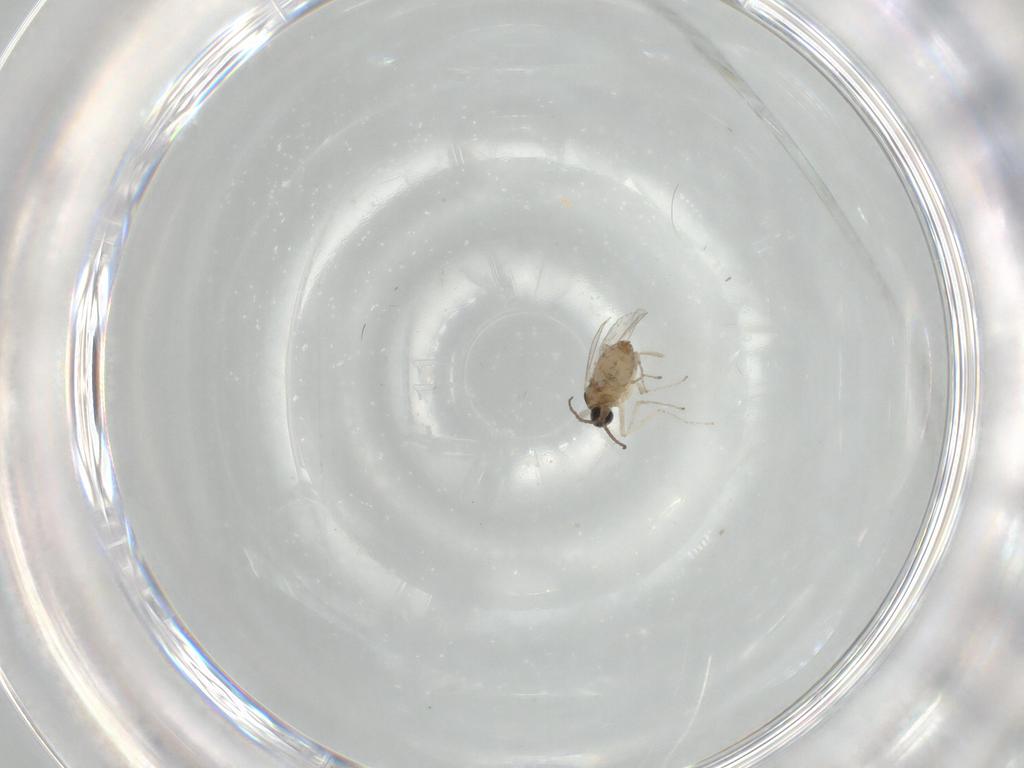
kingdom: Animalia
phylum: Arthropoda
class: Insecta
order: Diptera
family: Cecidomyiidae
